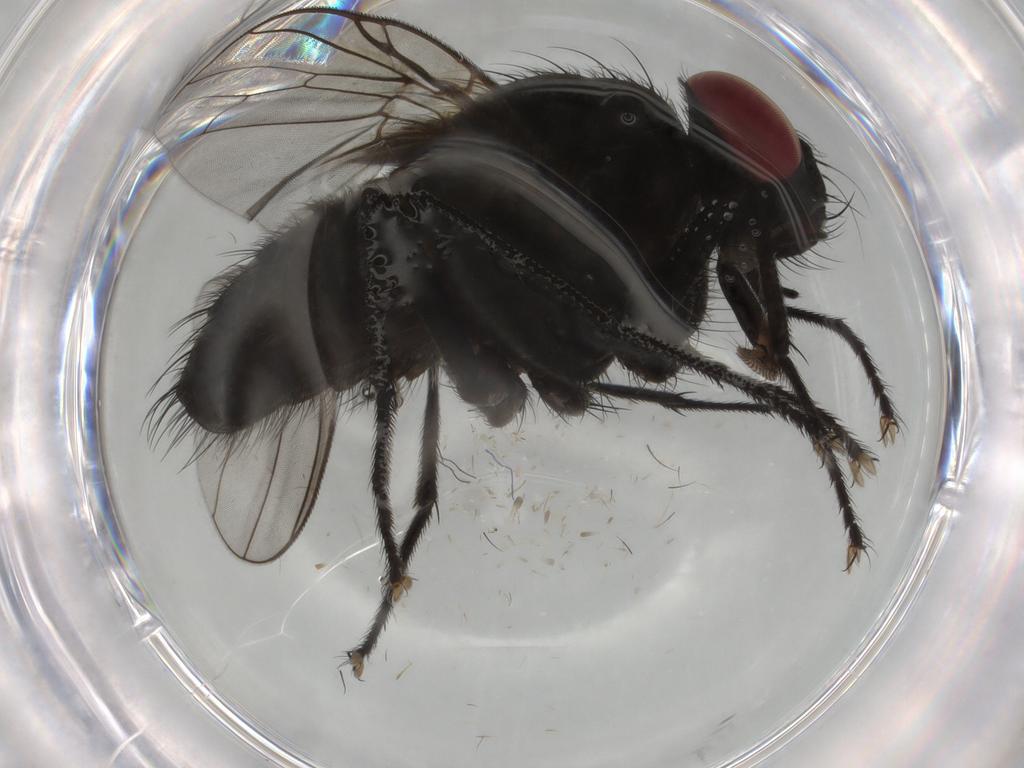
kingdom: Animalia
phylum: Arthropoda
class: Insecta
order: Diptera
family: Muscidae
